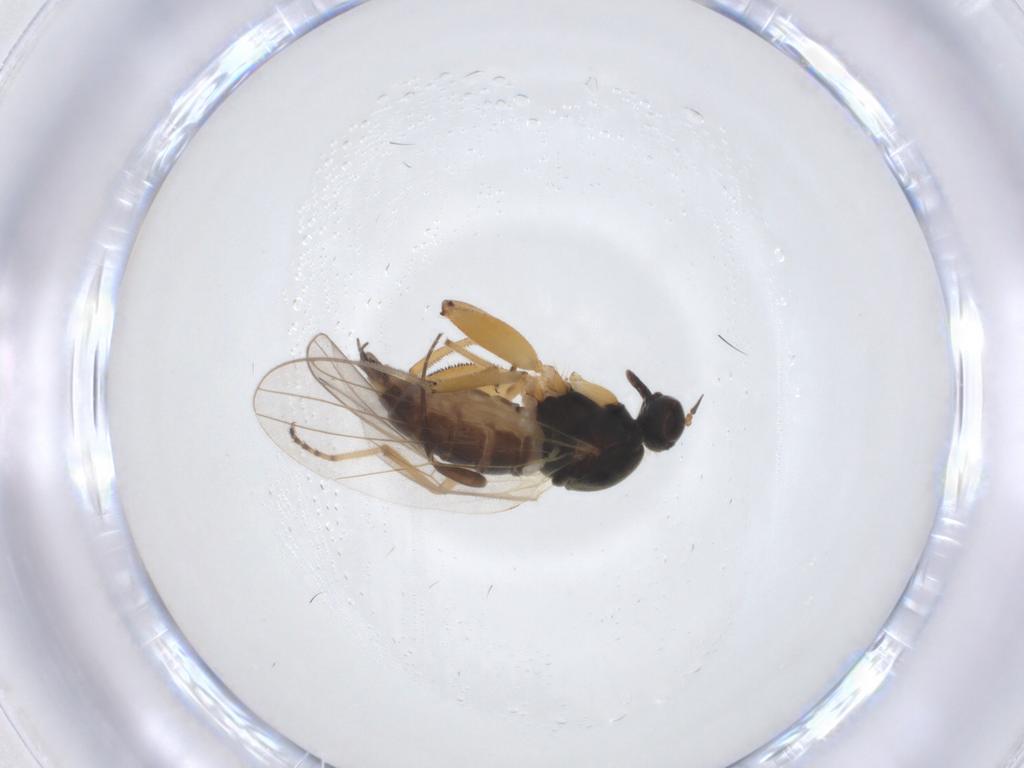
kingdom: Animalia
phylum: Arthropoda
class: Insecta
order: Diptera
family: Hybotidae
